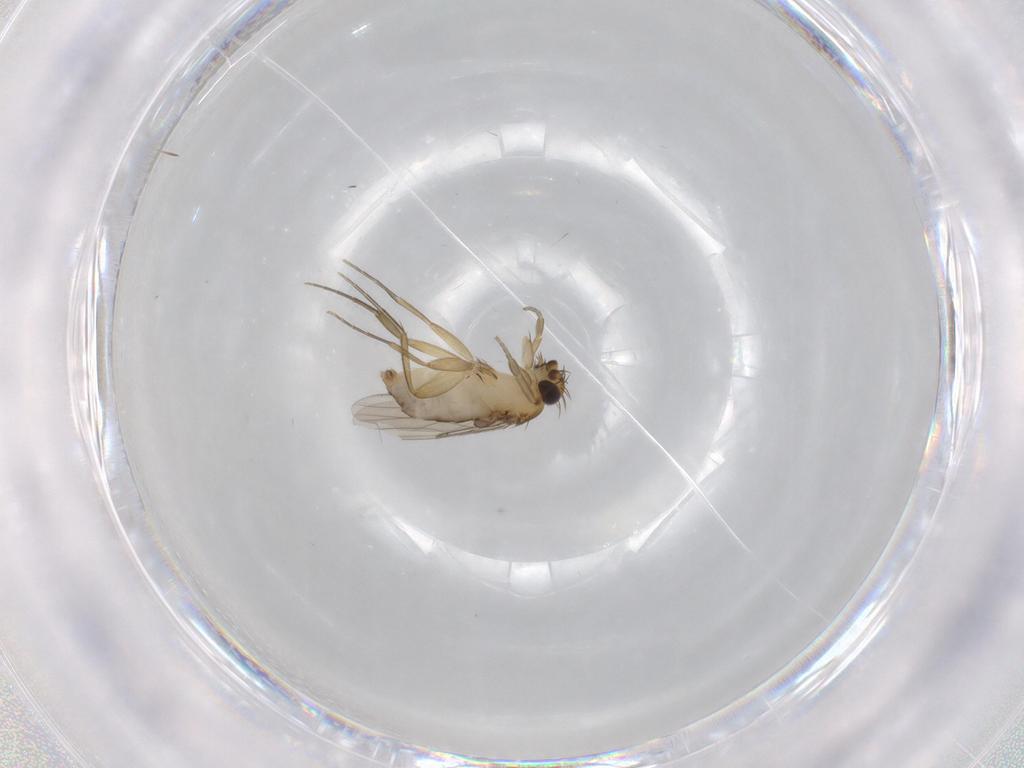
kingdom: Animalia
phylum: Arthropoda
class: Insecta
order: Diptera
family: Phoridae
